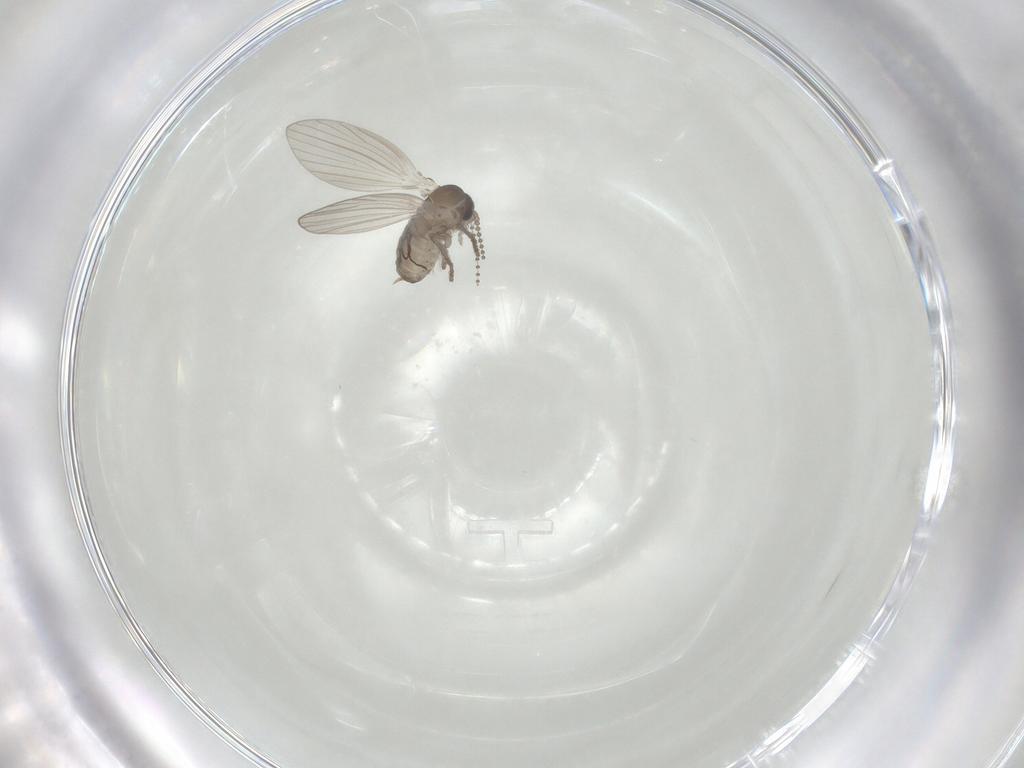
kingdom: Animalia
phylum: Arthropoda
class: Insecta
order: Diptera
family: Psychodidae
